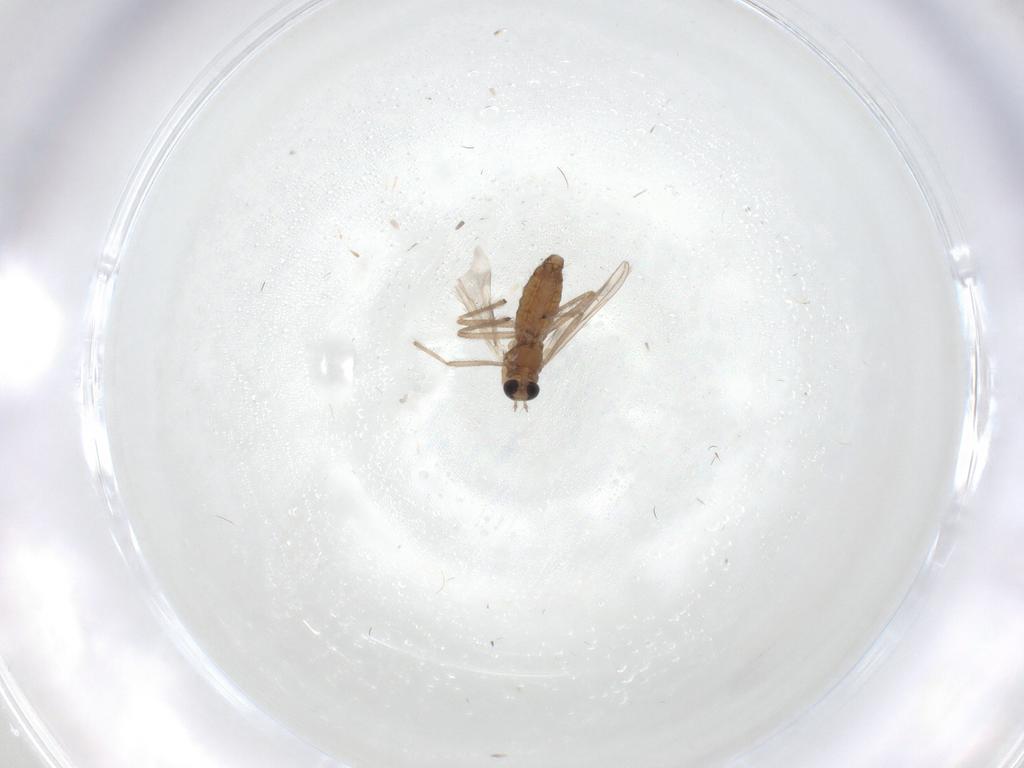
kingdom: Animalia
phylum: Arthropoda
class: Insecta
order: Diptera
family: Chironomidae
